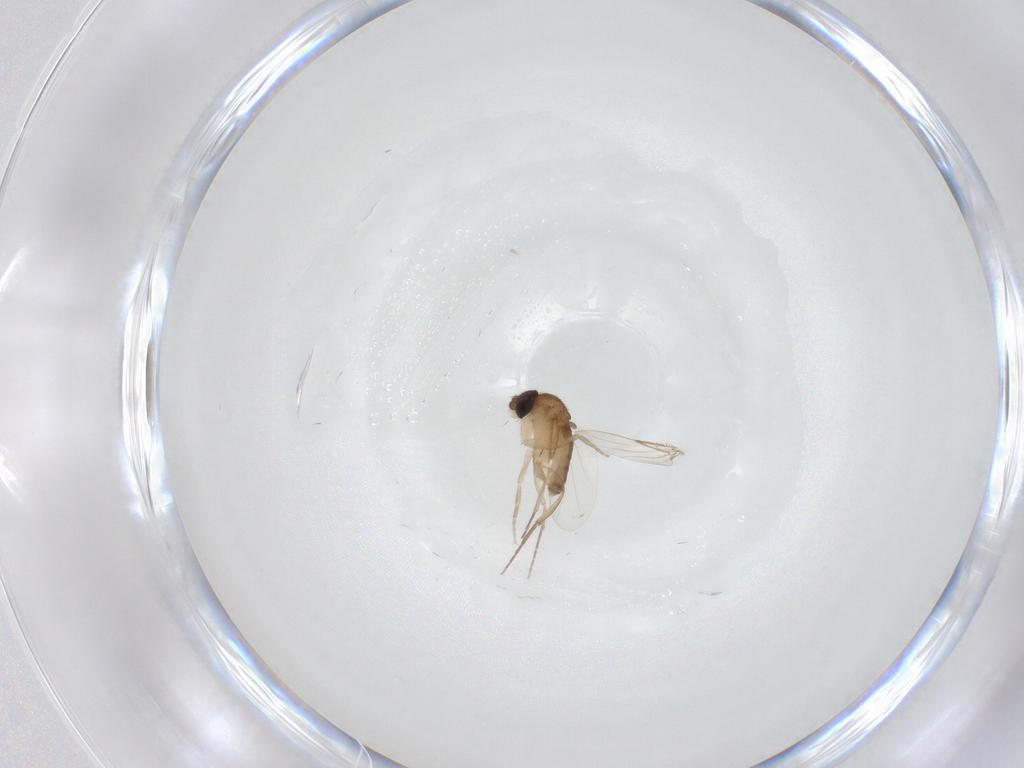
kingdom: Animalia
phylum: Arthropoda
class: Insecta
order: Diptera
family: Phoridae
